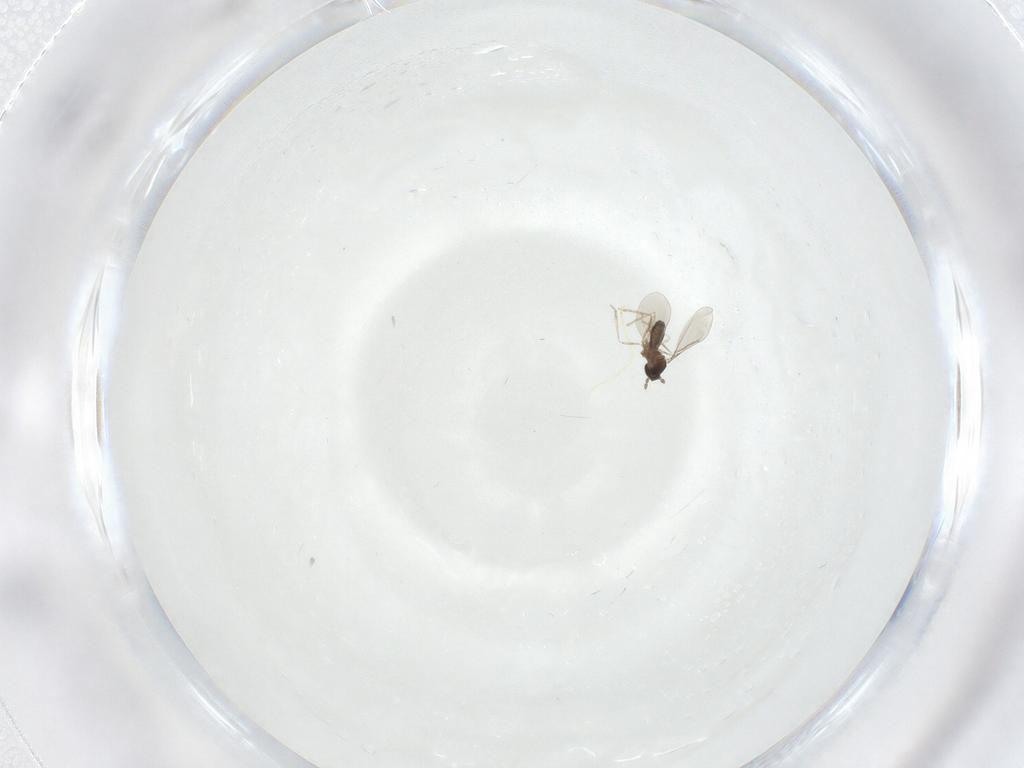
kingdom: Animalia
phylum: Arthropoda
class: Insecta
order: Diptera
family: Cecidomyiidae
